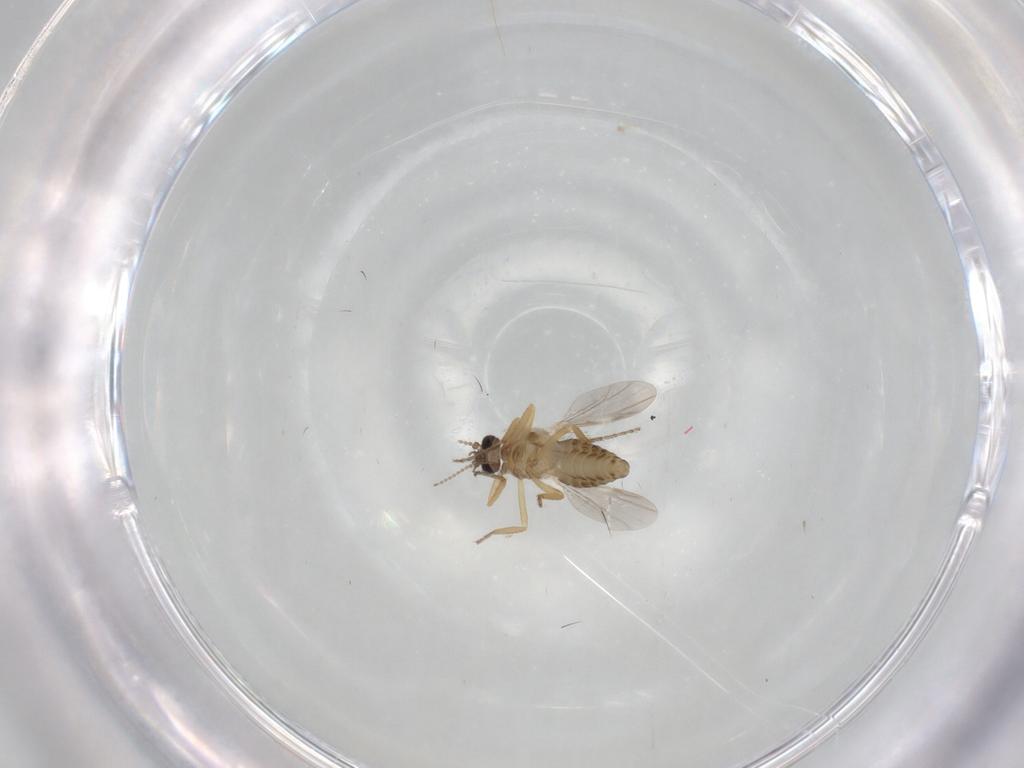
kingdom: Animalia
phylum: Arthropoda
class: Insecta
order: Diptera
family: Ceratopogonidae
